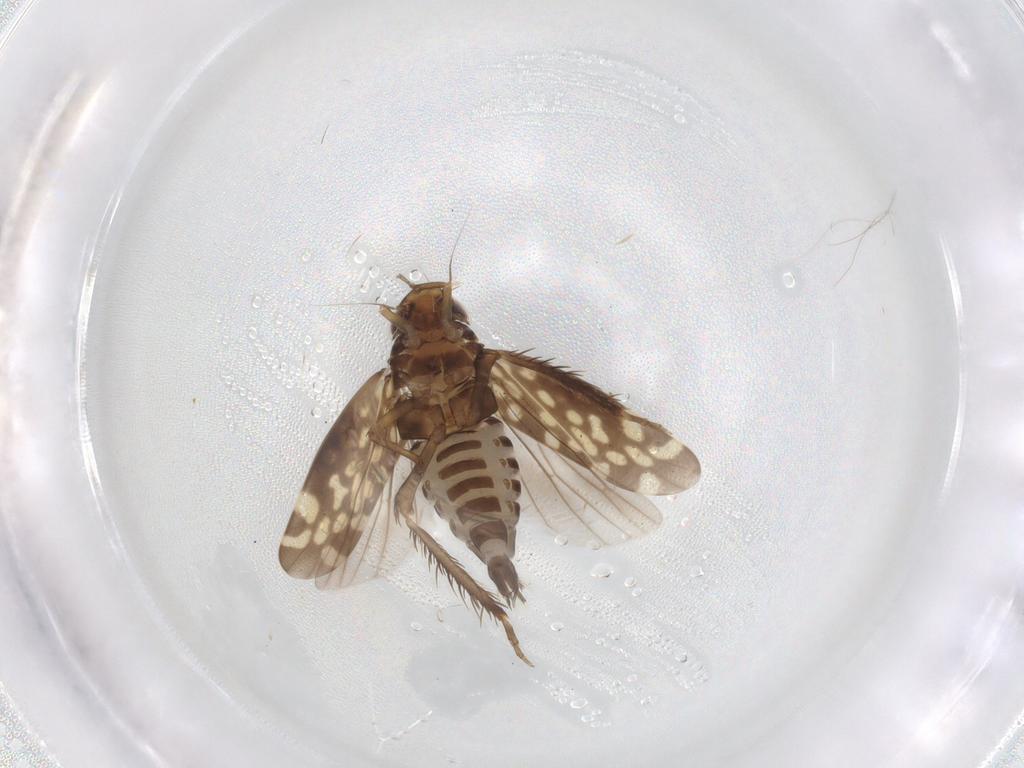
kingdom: Animalia
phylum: Arthropoda
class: Insecta
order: Hemiptera
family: Cicadellidae
